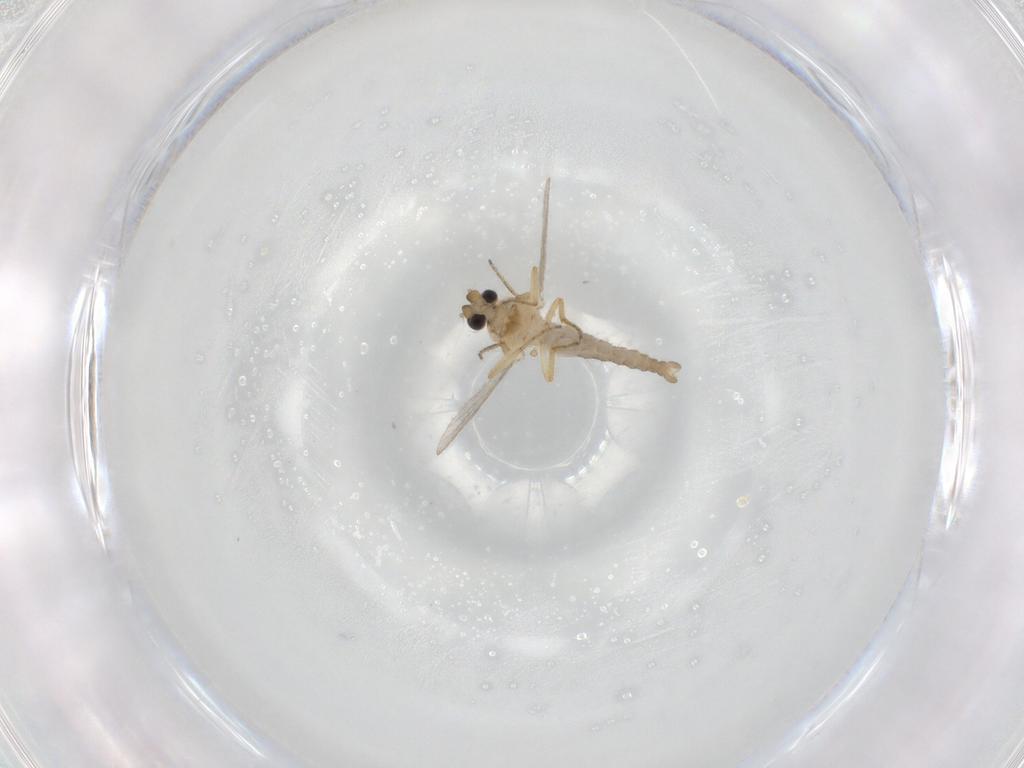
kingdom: Animalia
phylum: Arthropoda
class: Insecta
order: Diptera
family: Ceratopogonidae
